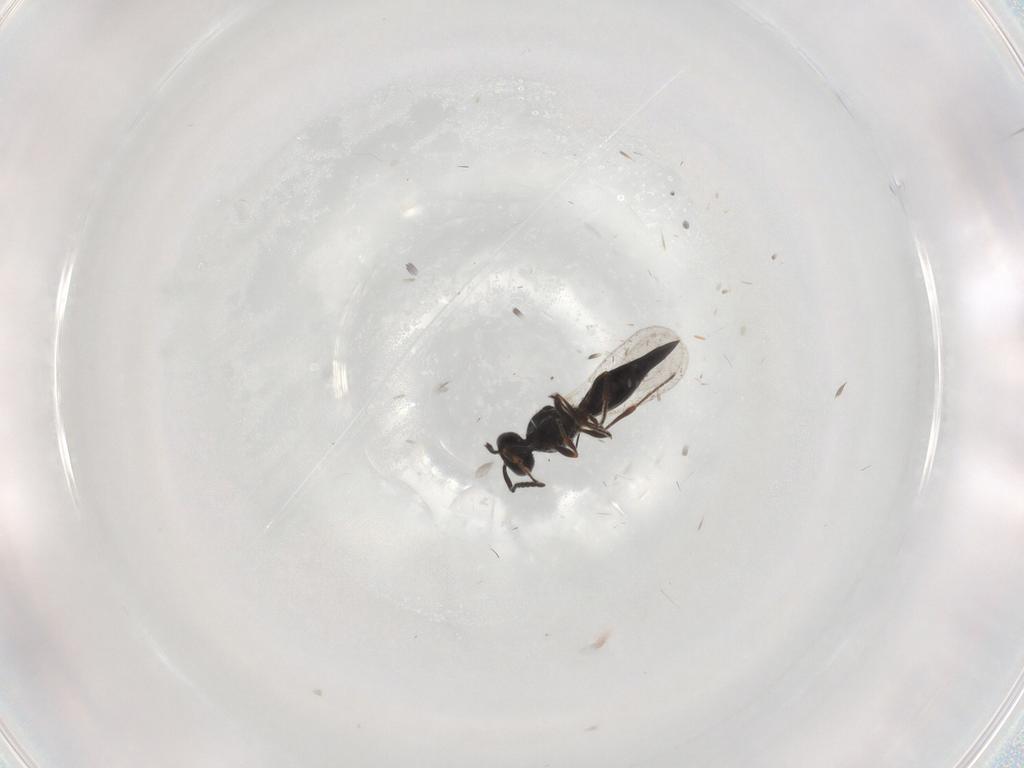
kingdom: Animalia
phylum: Arthropoda
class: Insecta
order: Hymenoptera
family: Platygastridae
